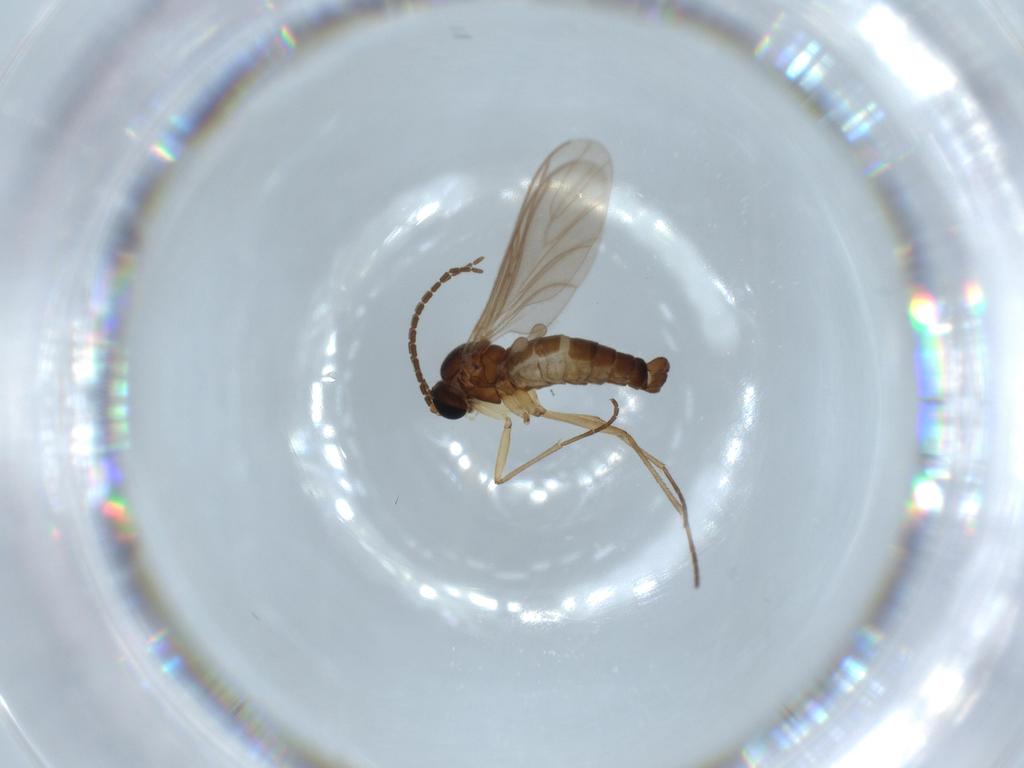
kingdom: Animalia
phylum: Arthropoda
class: Insecta
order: Diptera
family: Sciaridae
